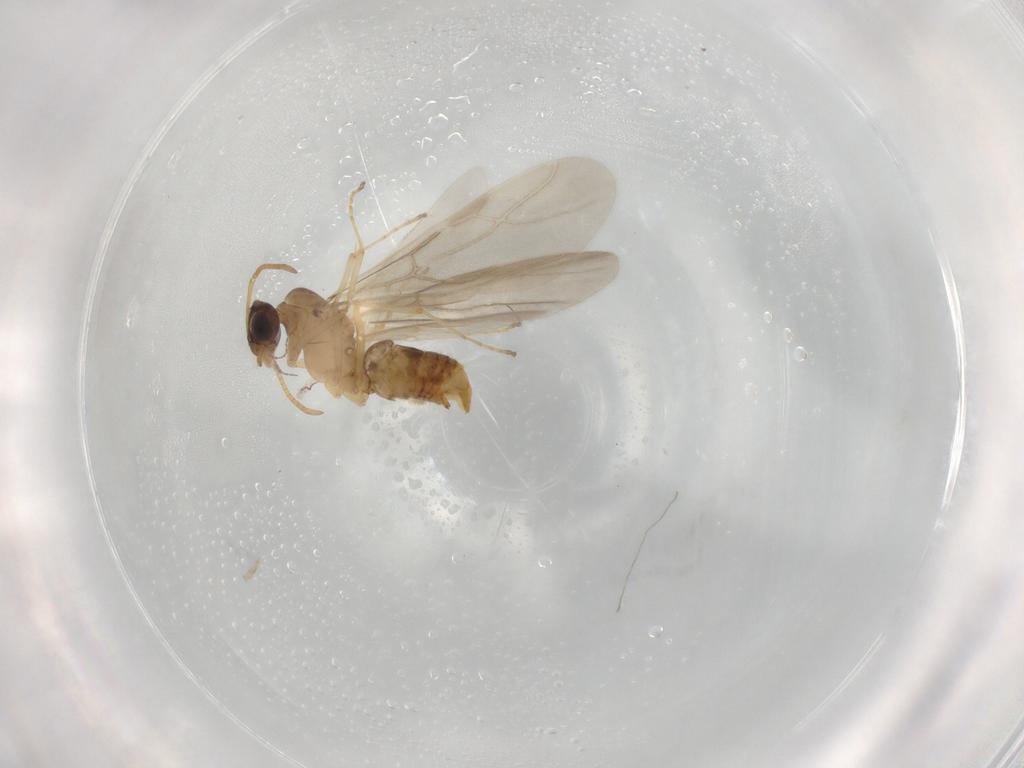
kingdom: Animalia
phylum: Arthropoda
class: Insecta
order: Hymenoptera
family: Formicidae
